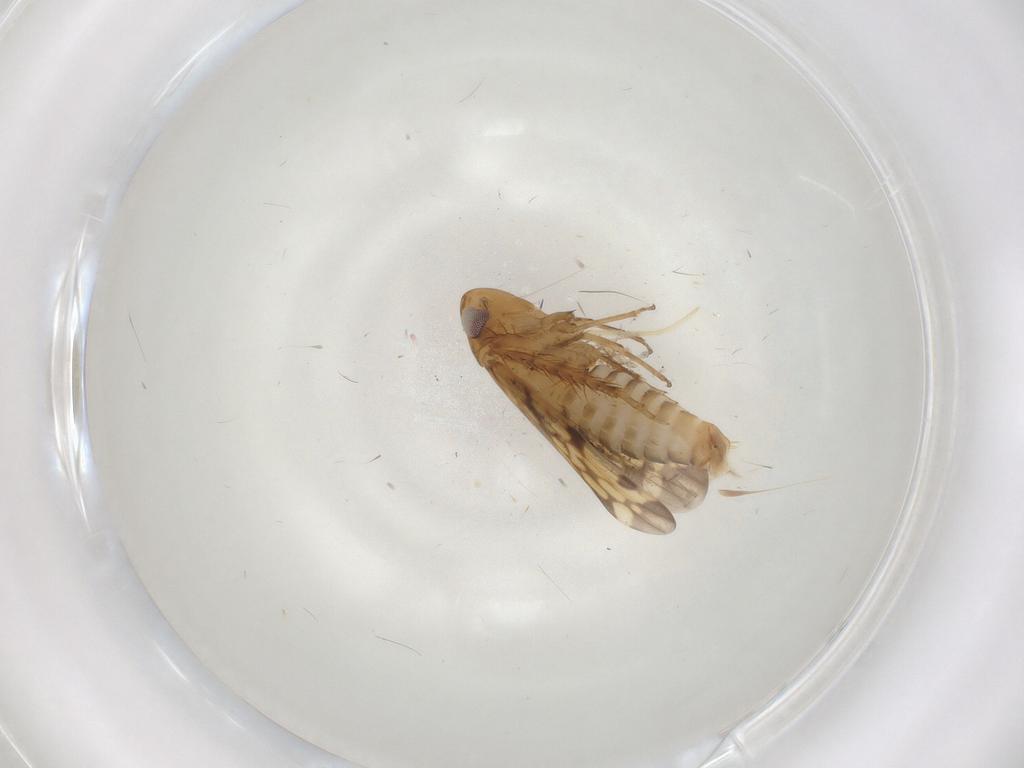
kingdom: Animalia
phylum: Arthropoda
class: Insecta
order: Hemiptera
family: Cicadellidae
